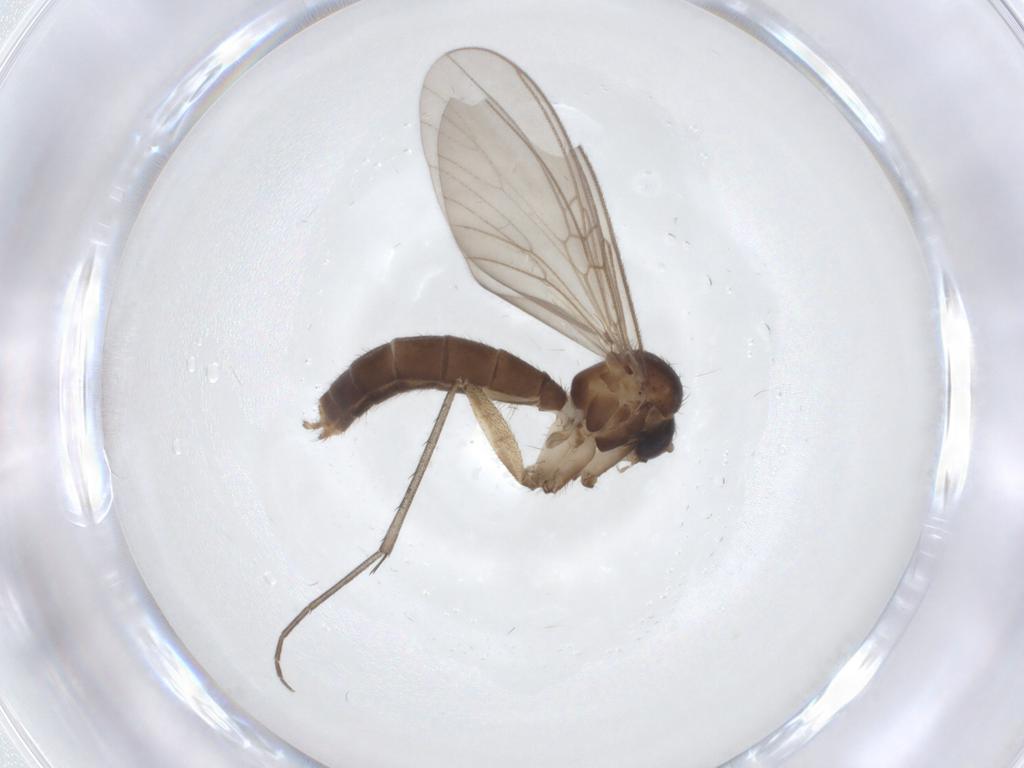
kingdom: Animalia
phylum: Arthropoda
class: Insecta
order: Diptera
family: Mycetophilidae
